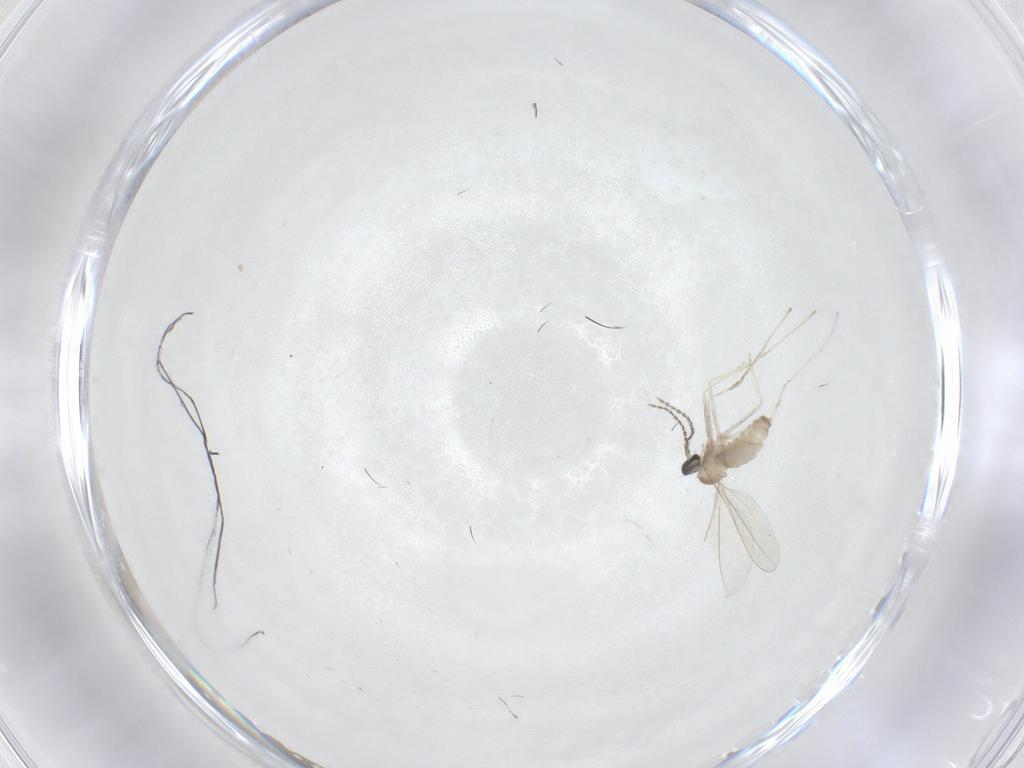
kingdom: Animalia
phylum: Arthropoda
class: Insecta
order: Diptera
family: Cecidomyiidae
